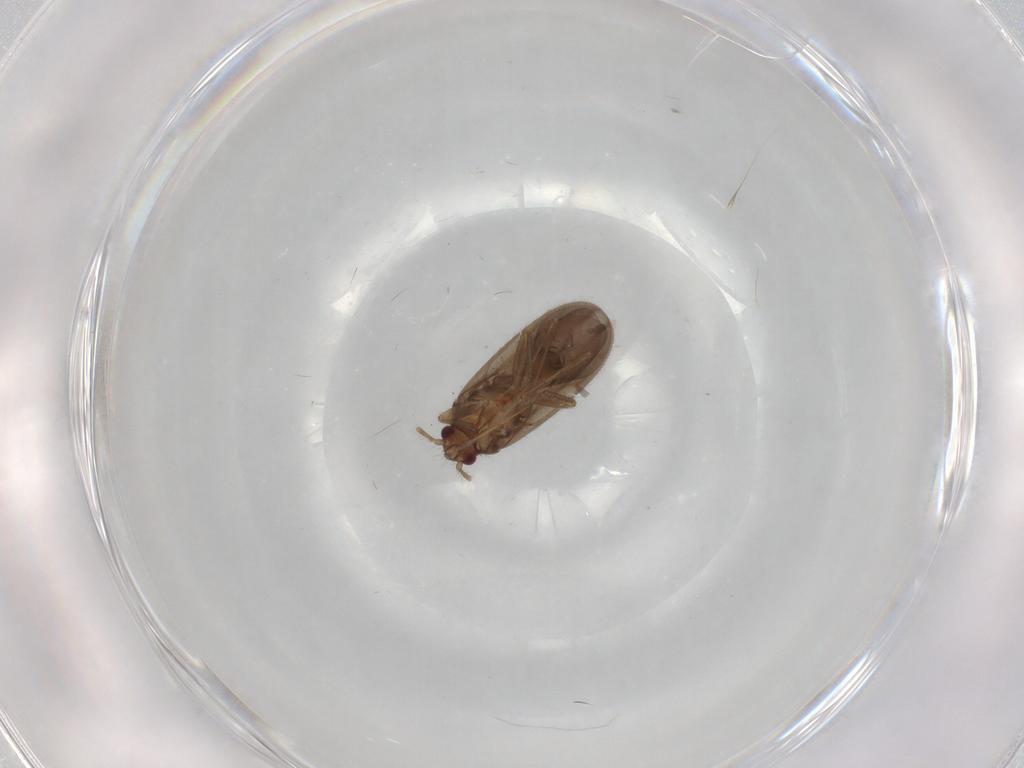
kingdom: Animalia
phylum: Arthropoda
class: Insecta
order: Hemiptera
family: Ceratocombidae
